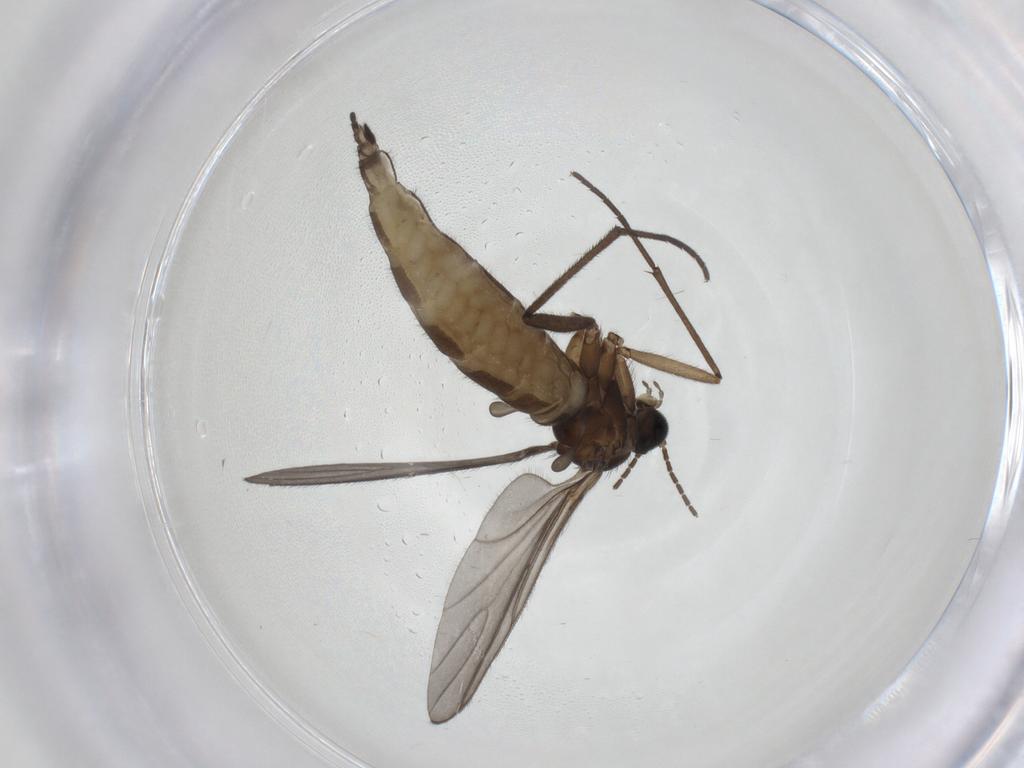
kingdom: Animalia
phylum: Arthropoda
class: Insecta
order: Diptera
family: Sciaridae
